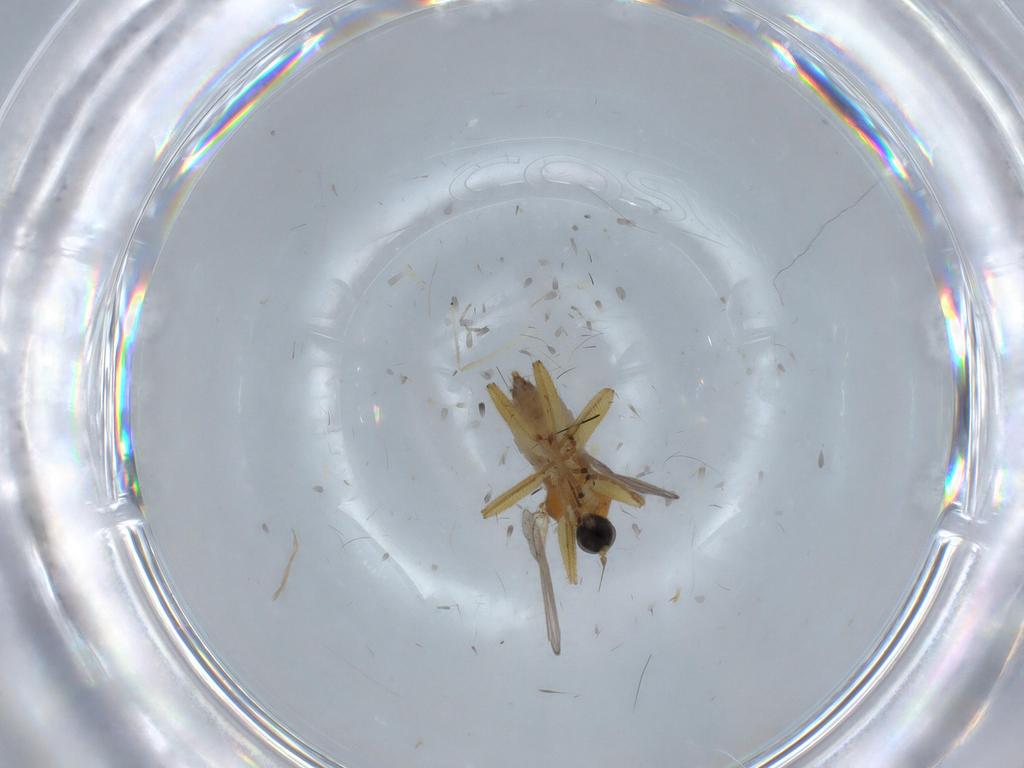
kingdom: Animalia
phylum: Arthropoda
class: Insecta
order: Diptera
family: Hybotidae
